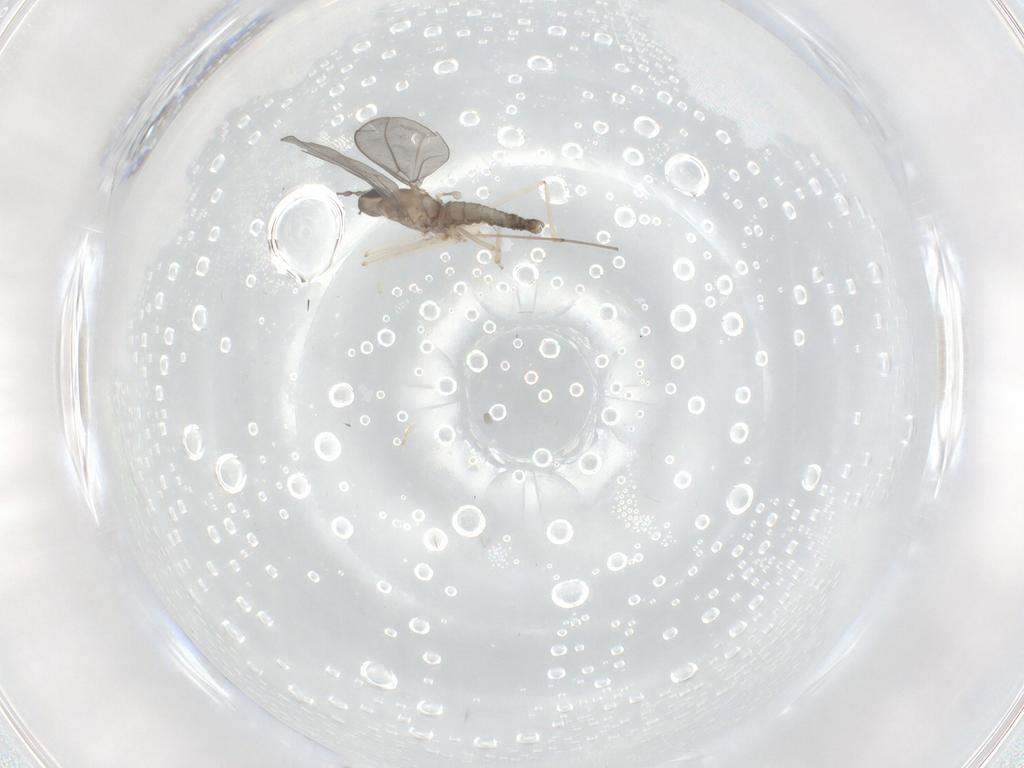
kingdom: Animalia
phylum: Arthropoda
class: Insecta
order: Diptera
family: Cecidomyiidae
